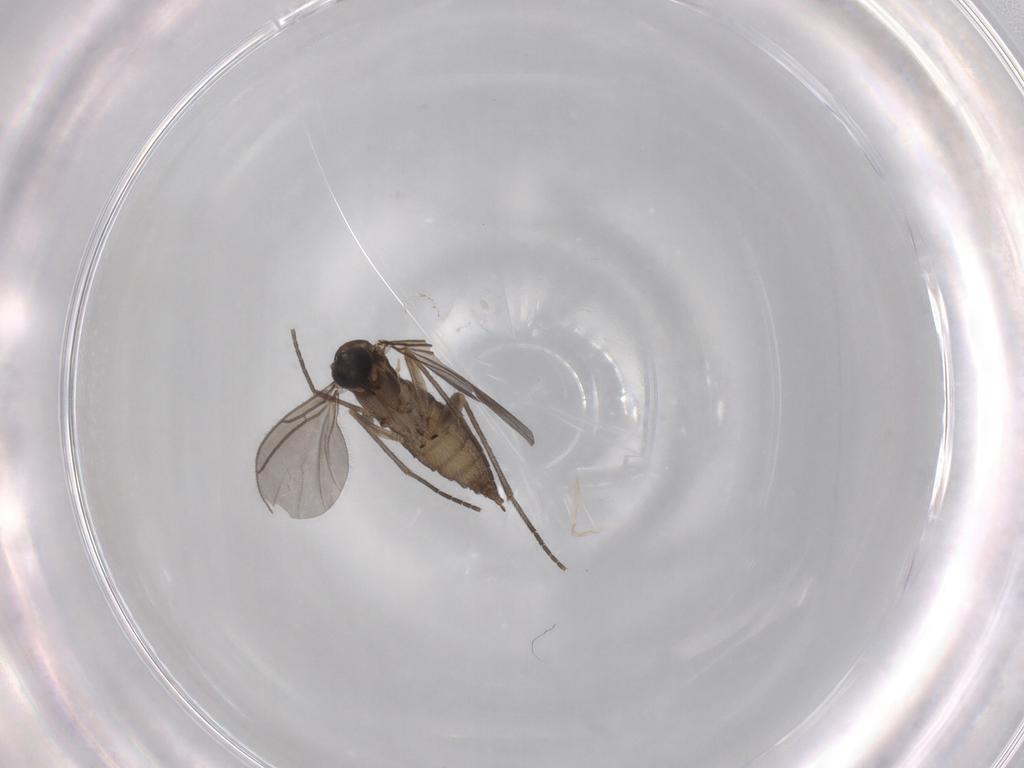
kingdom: Animalia
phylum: Arthropoda
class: Insecta
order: Diptera
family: Sciaridae
